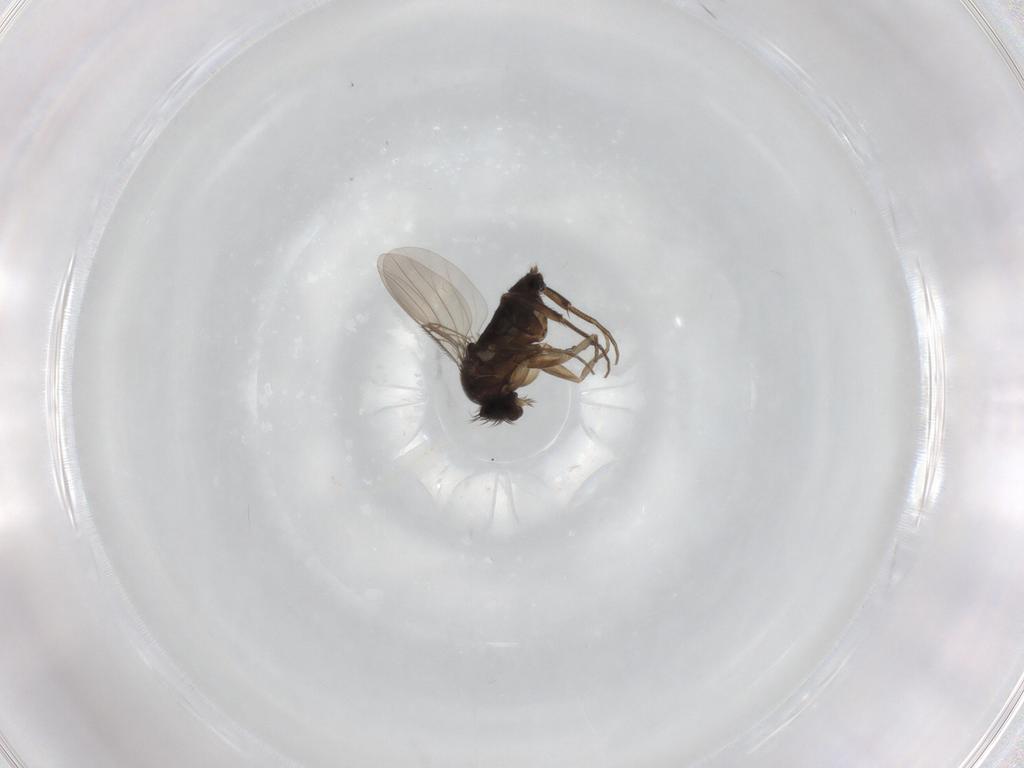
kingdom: Animalia
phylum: Arthropoda
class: Insecta
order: Diptera
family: Phoridae
